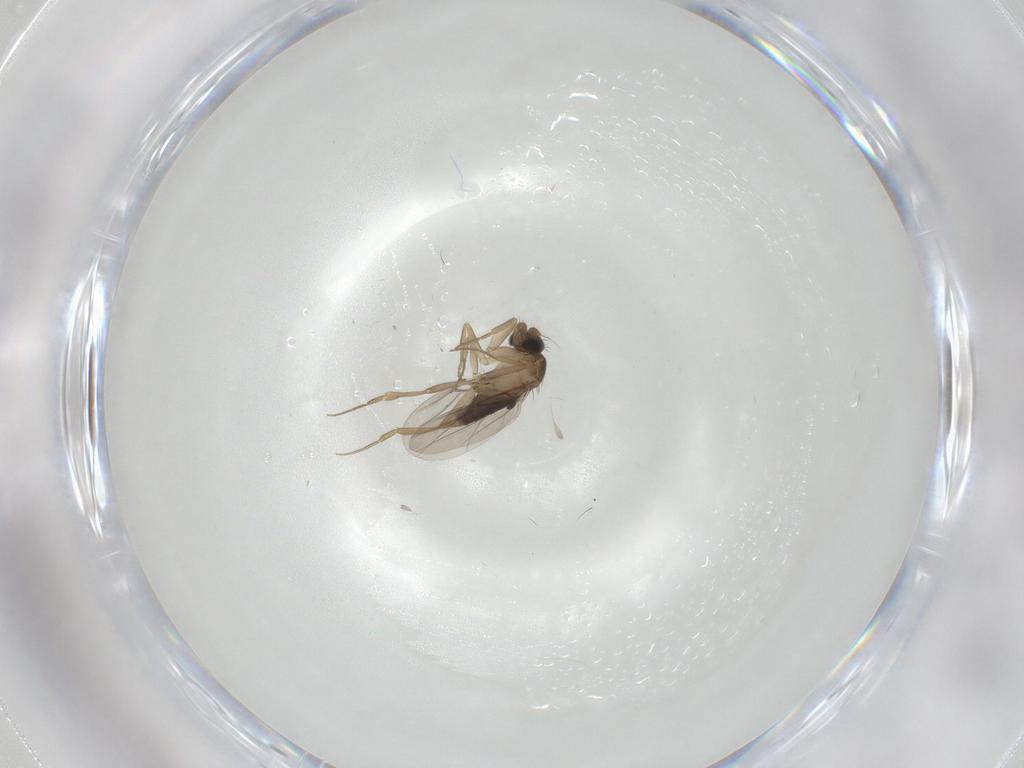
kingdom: Animalia
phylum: Arthropoda
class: Insecta
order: Diptera
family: Phoridae
